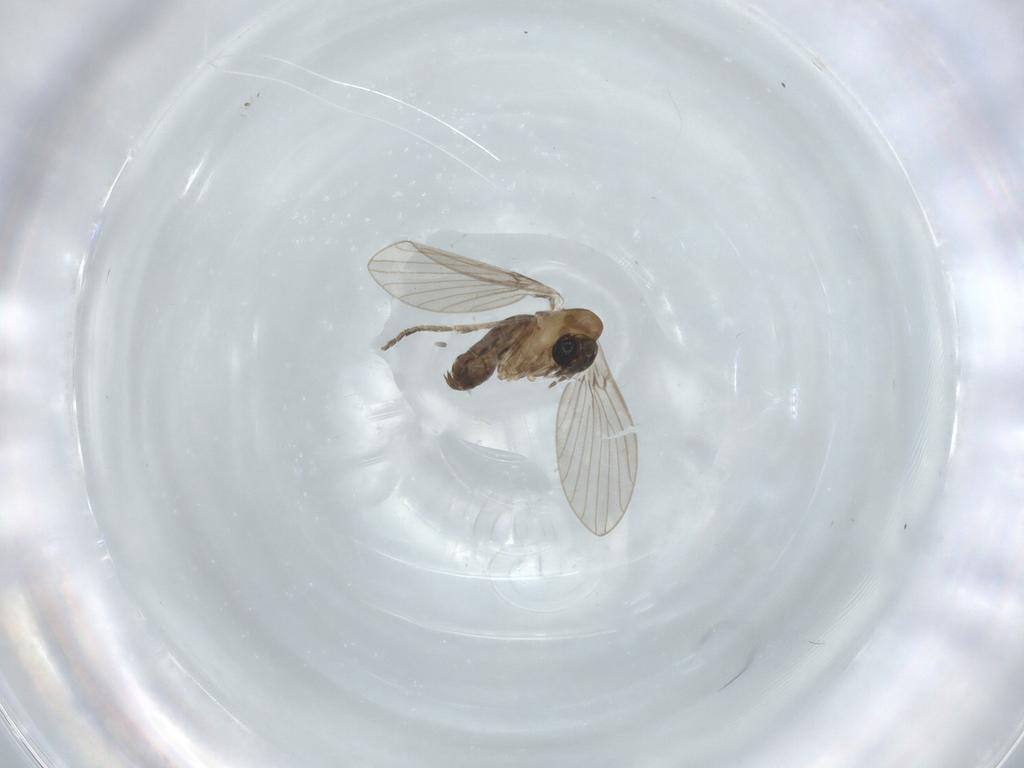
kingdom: Animalia
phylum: Arthropoda
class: Insecta
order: Diptera
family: Psychodidae
